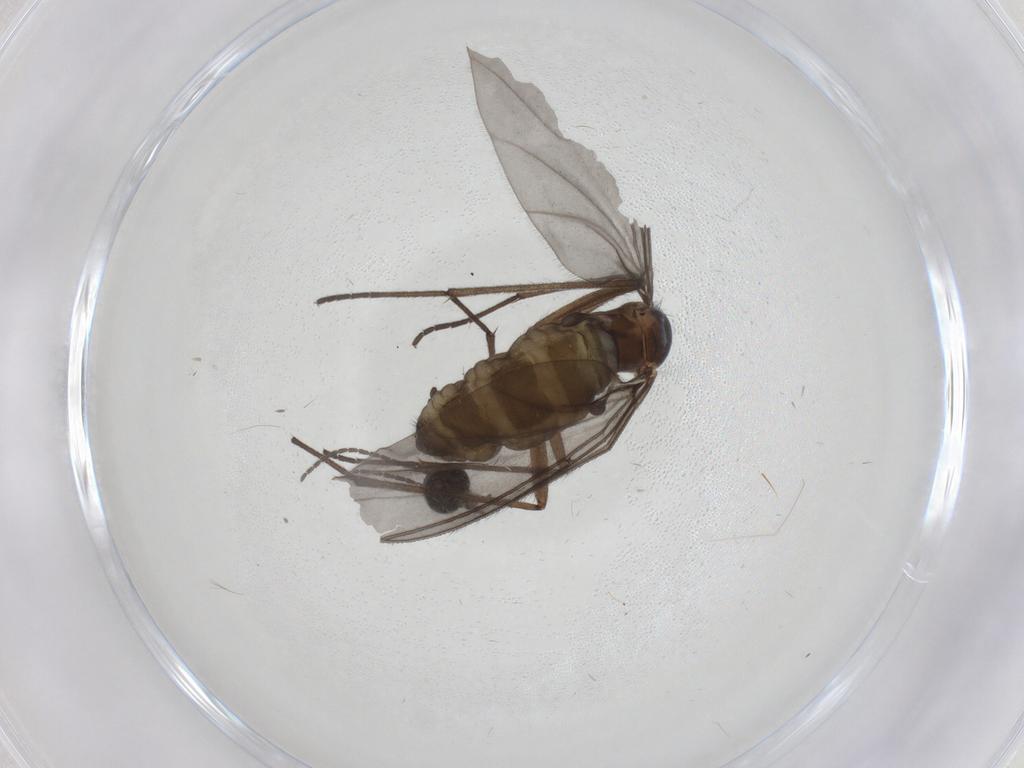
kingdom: Animalia
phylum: Arthropoda
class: Insecta
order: Diptera
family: Sciaridae
